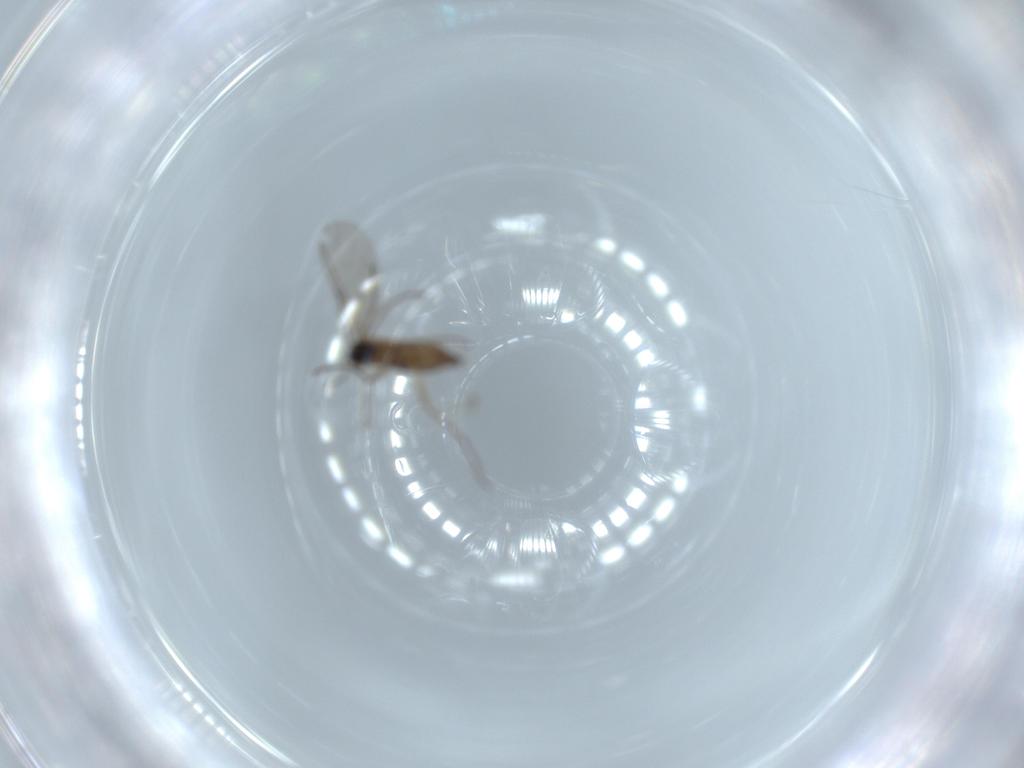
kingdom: Animalia
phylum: Arthropoda
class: Insecta
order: Diptera
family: Sciaridae
